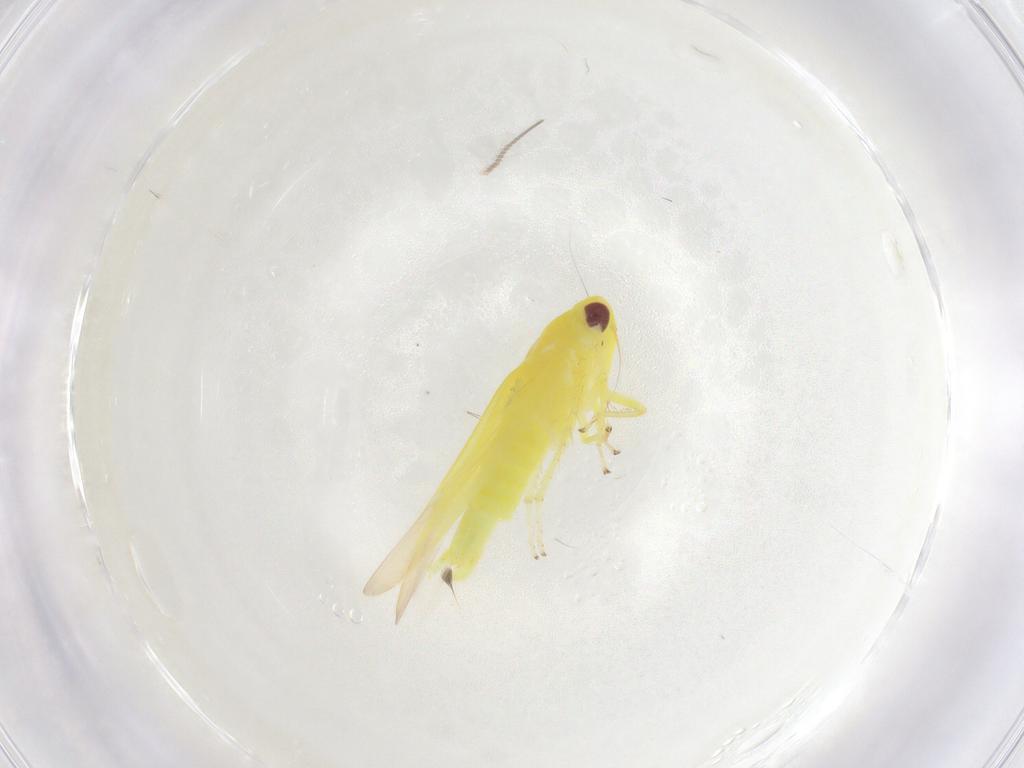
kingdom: Animalia
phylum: Arthropoda
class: Insecta
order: Hemiptera
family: Cicadellidae
